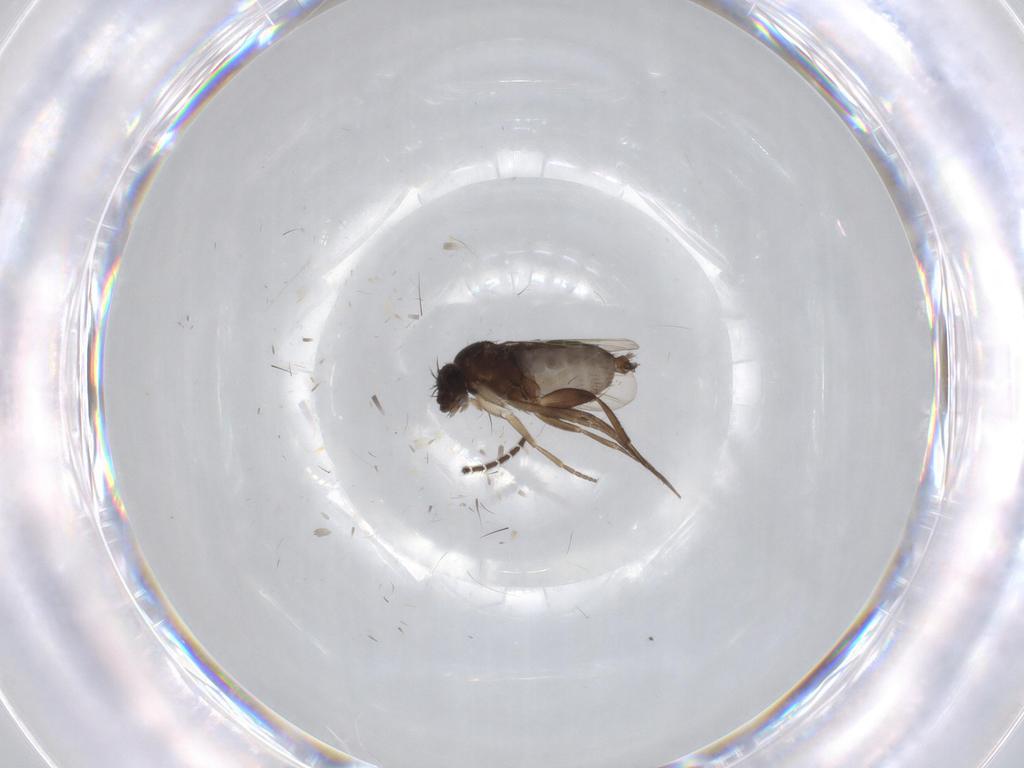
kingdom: Animalia
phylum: Arthropoda
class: Insecta
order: Diptera
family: Phoridae
